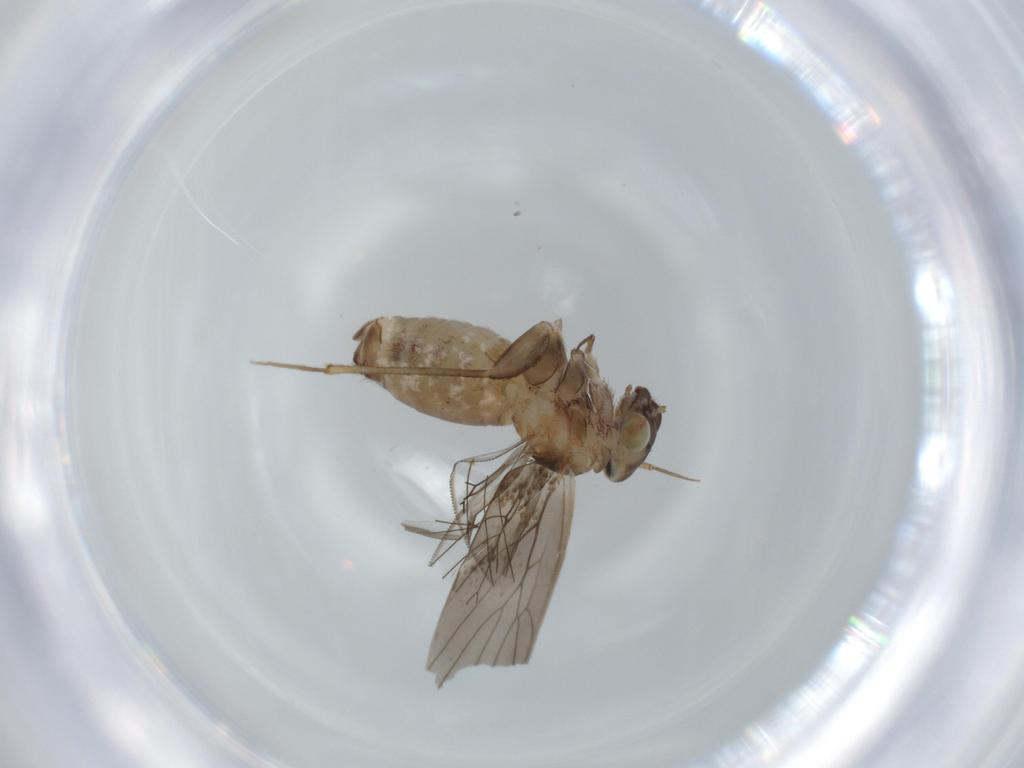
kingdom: Animalia
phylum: Arthropoda
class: Insecta
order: Psocodea
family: Lepidopsocidae
